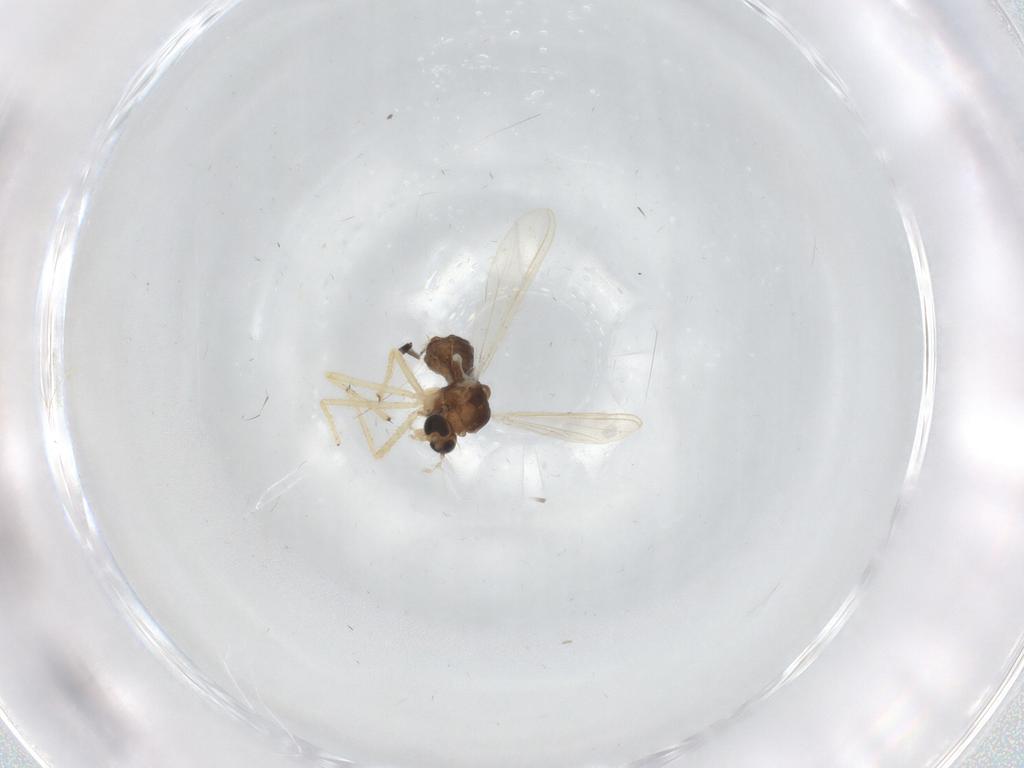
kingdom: Animalia
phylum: Arthropoda
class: Insecta
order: Diptera
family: Chironomidae
